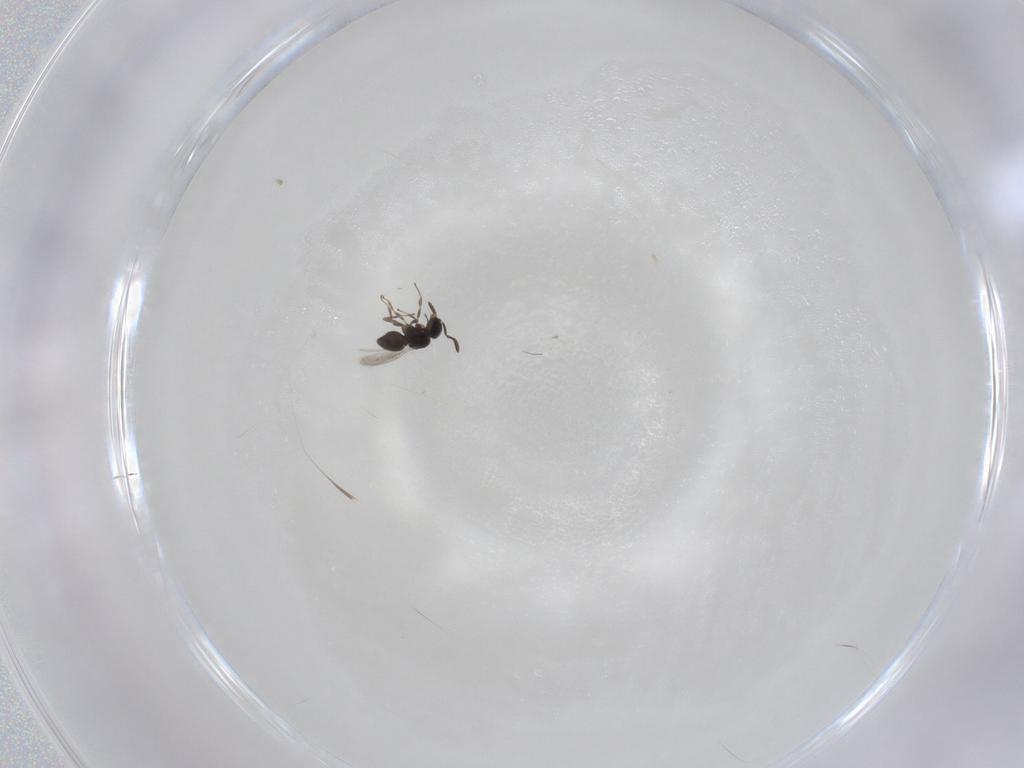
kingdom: Animalia
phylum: Arthropoda
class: Insecta
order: Hymenoptera
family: Scelionidae
